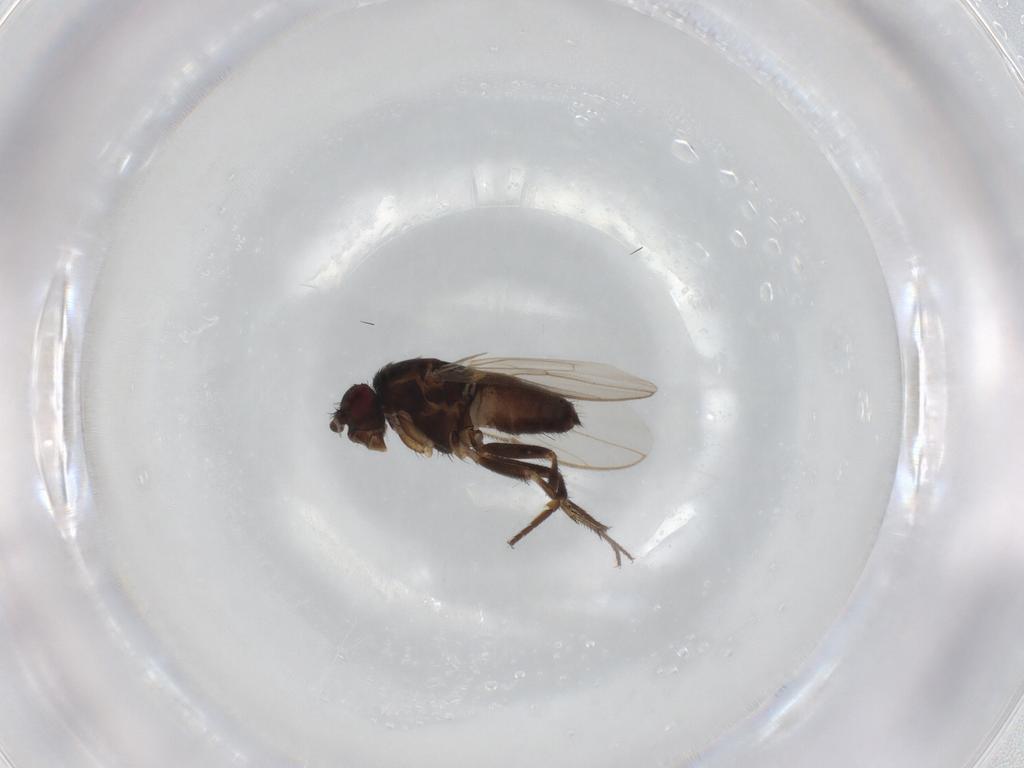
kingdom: Animalia
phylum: Arthropoda
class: Insecta
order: Diptera
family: Sphaeroceridae
